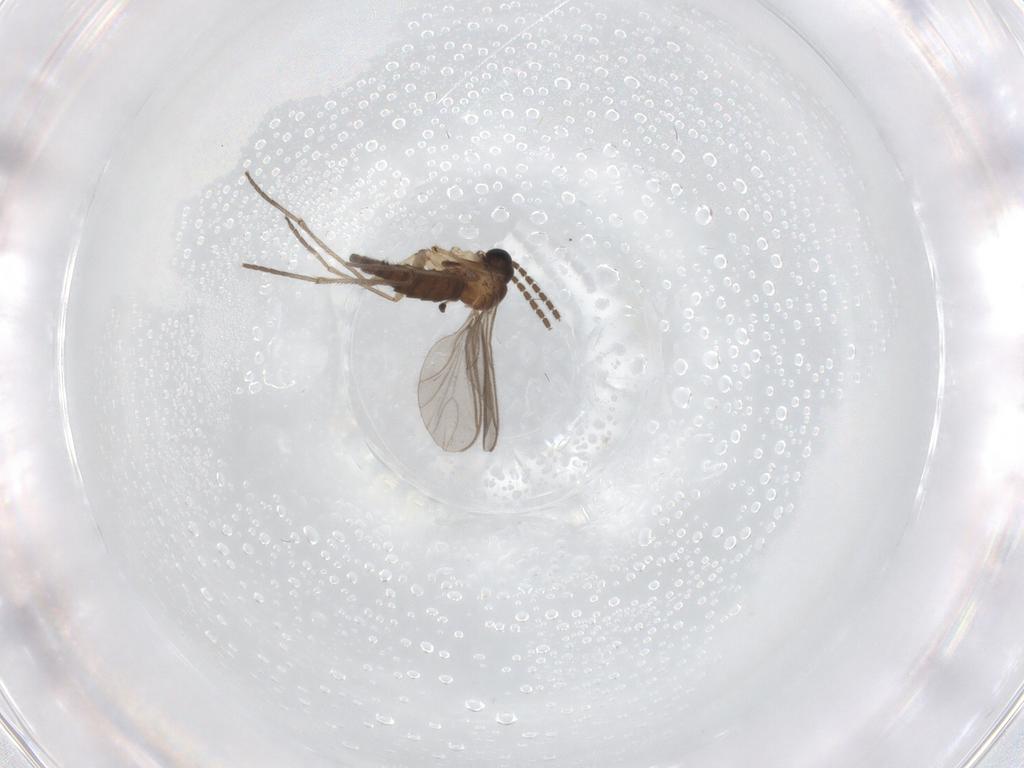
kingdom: Animalia
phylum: Arthropoda
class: Insecta
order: Diptera
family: Sciaridae
